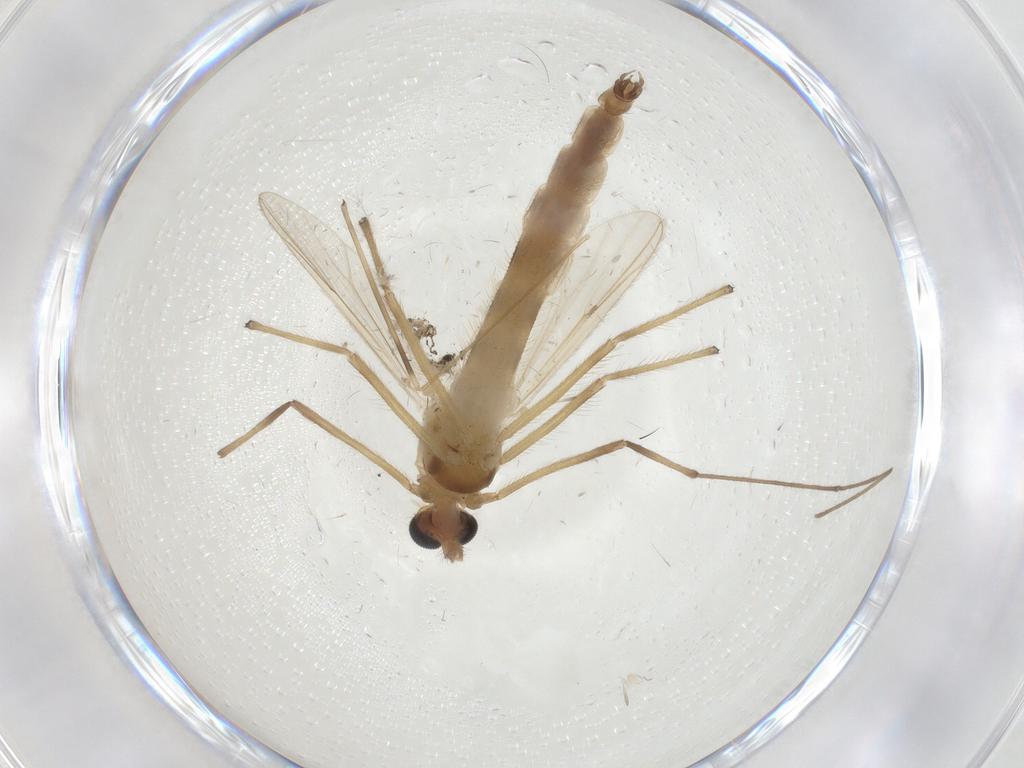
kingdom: Animalia
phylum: Arthropoda
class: Insecta
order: Diptera
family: Chironomidae
